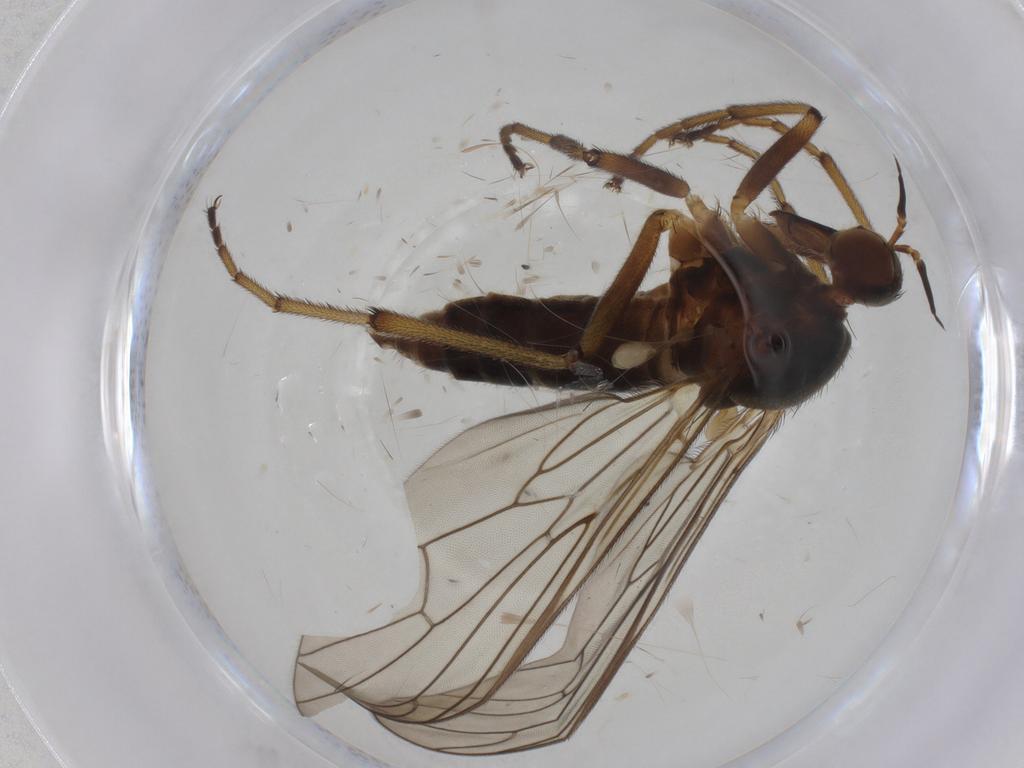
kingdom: Animalia
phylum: Arthropoda
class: Insecta
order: Diptera
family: Empididae
